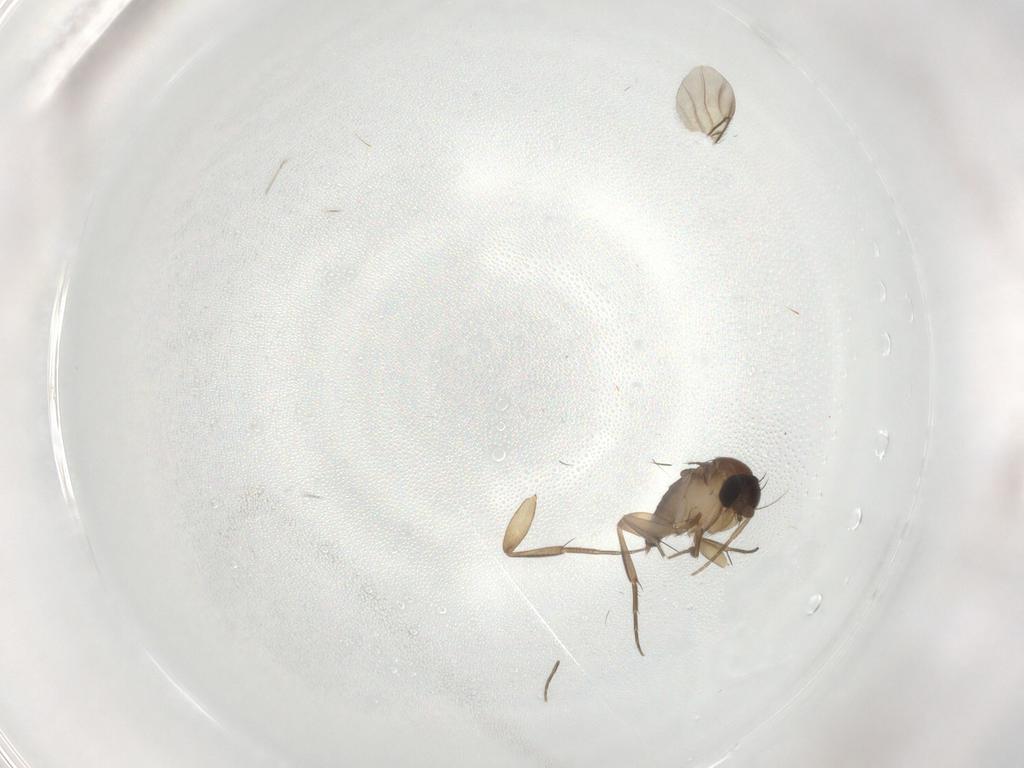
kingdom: Animalia
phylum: Arthropoda
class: Insecta
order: Diptera
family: Phoridae
